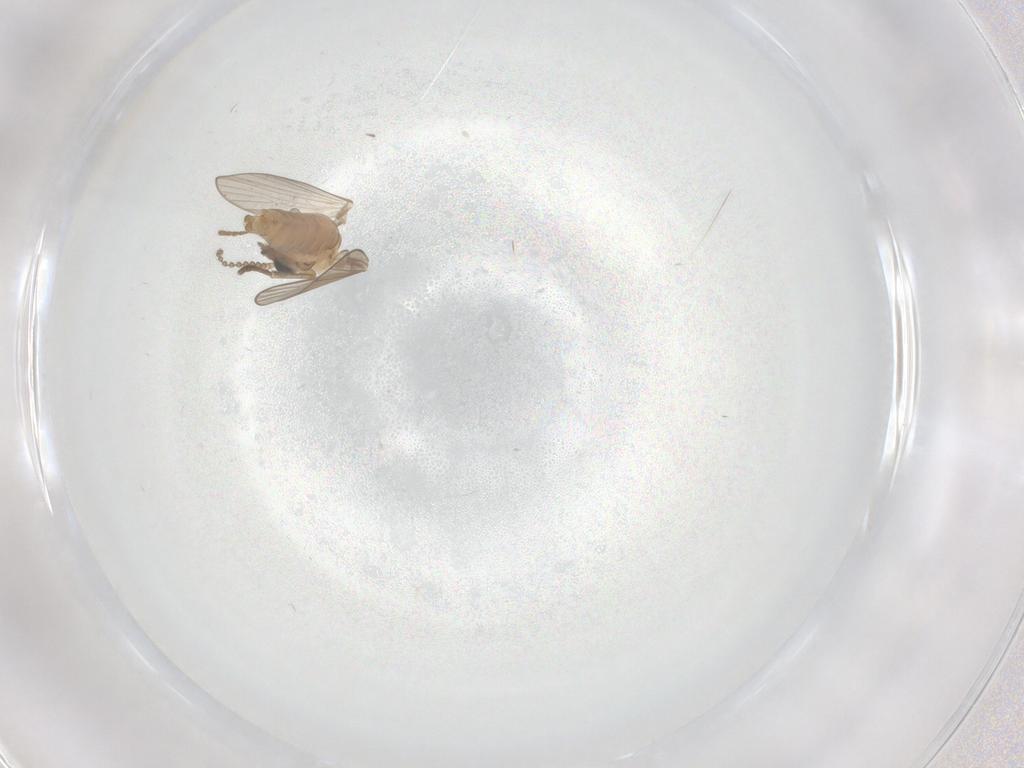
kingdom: Animalia
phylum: Arthropoda
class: Insecta
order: Diptera
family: Psychodidae
